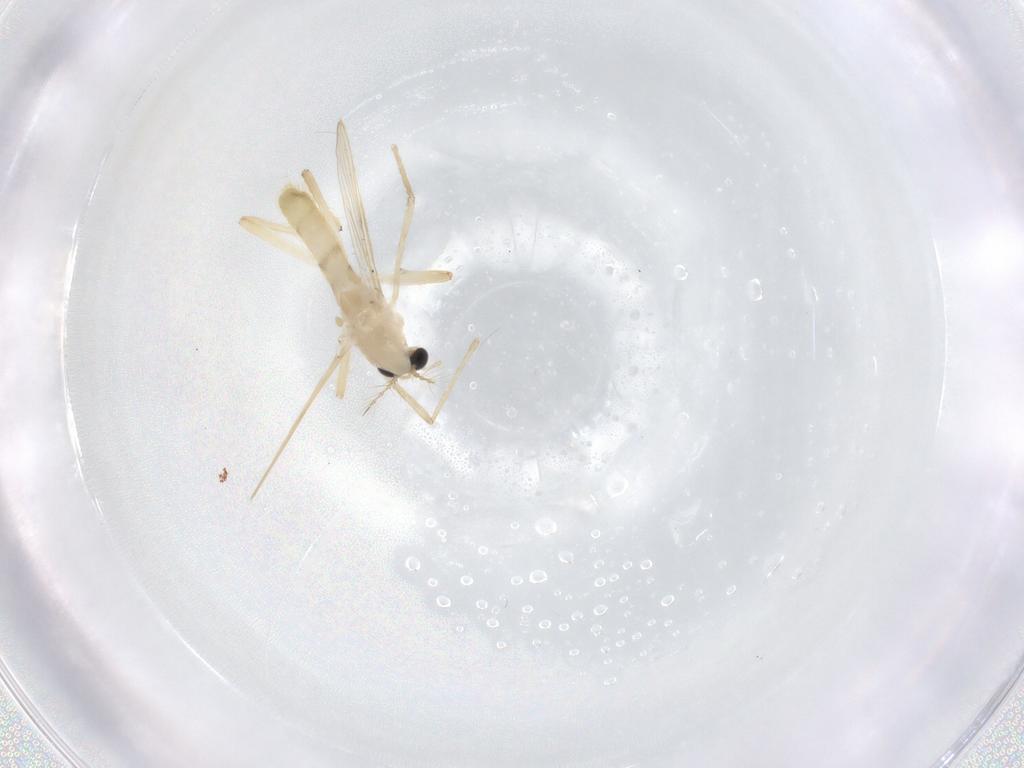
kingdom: Animalia
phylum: Arthropoda
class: Insecta
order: Diptera
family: Chironomidae
